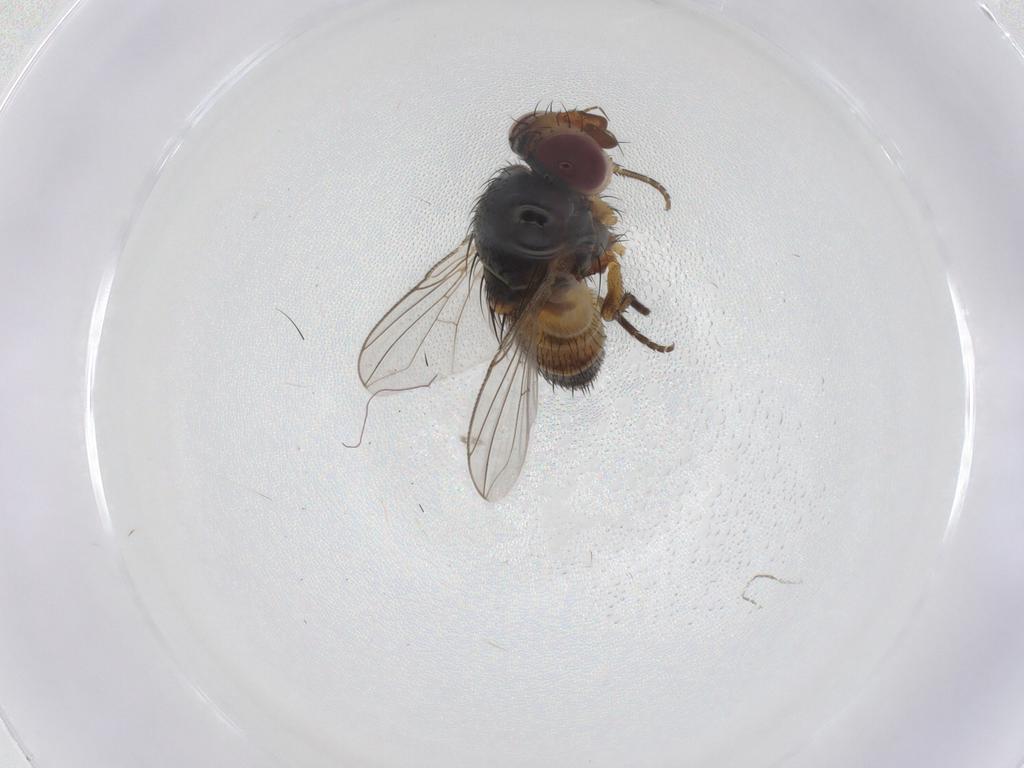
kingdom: Animalia
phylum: Arthropoda
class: Insecta
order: Diptera
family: Tachinidae
